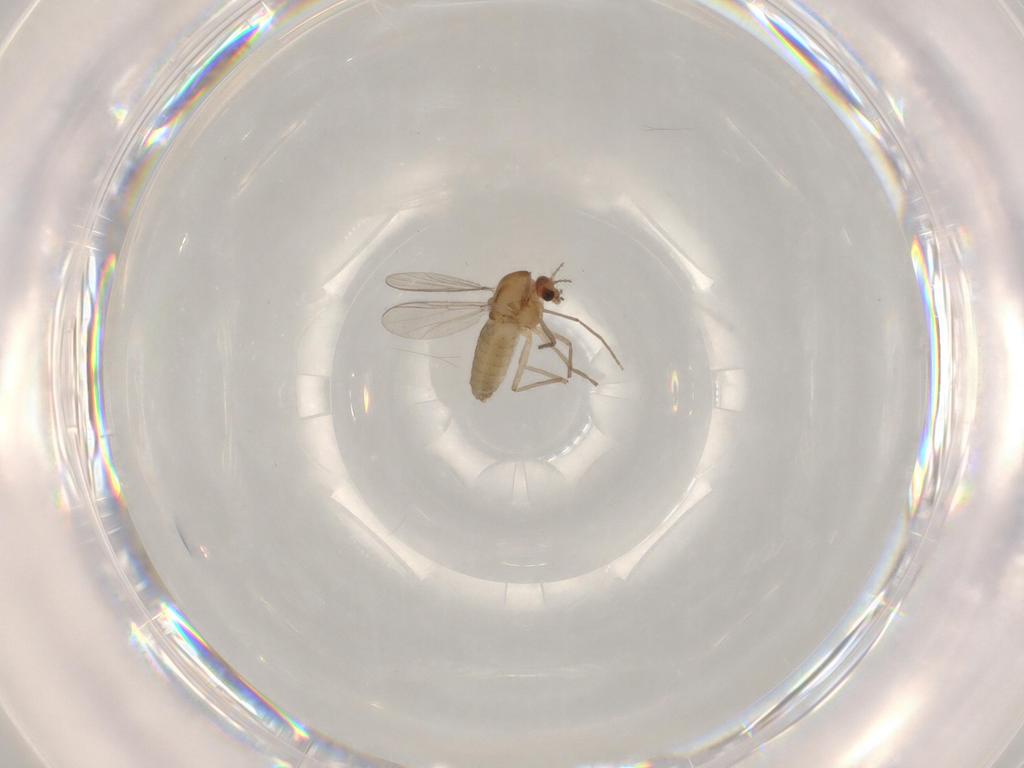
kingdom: Animalia
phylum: Arthropoda
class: Insecta
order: Diptera
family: Chironomidae
